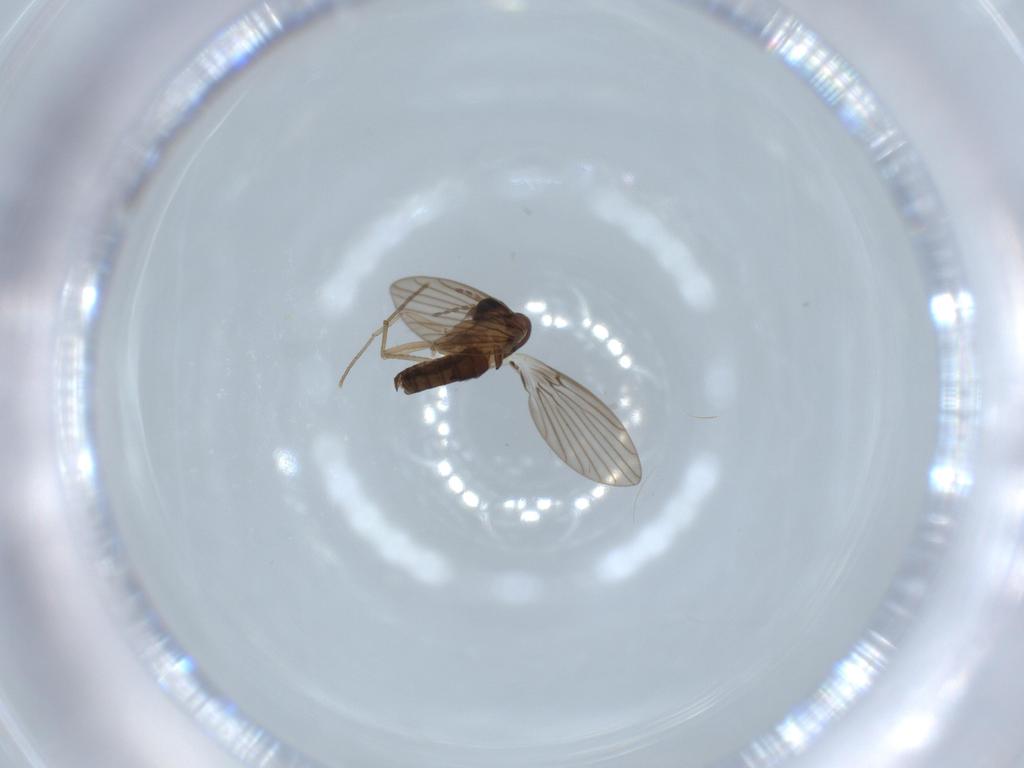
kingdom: Animalia
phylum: Arthropoda
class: Insecta
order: Diptera
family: Psychodidae
